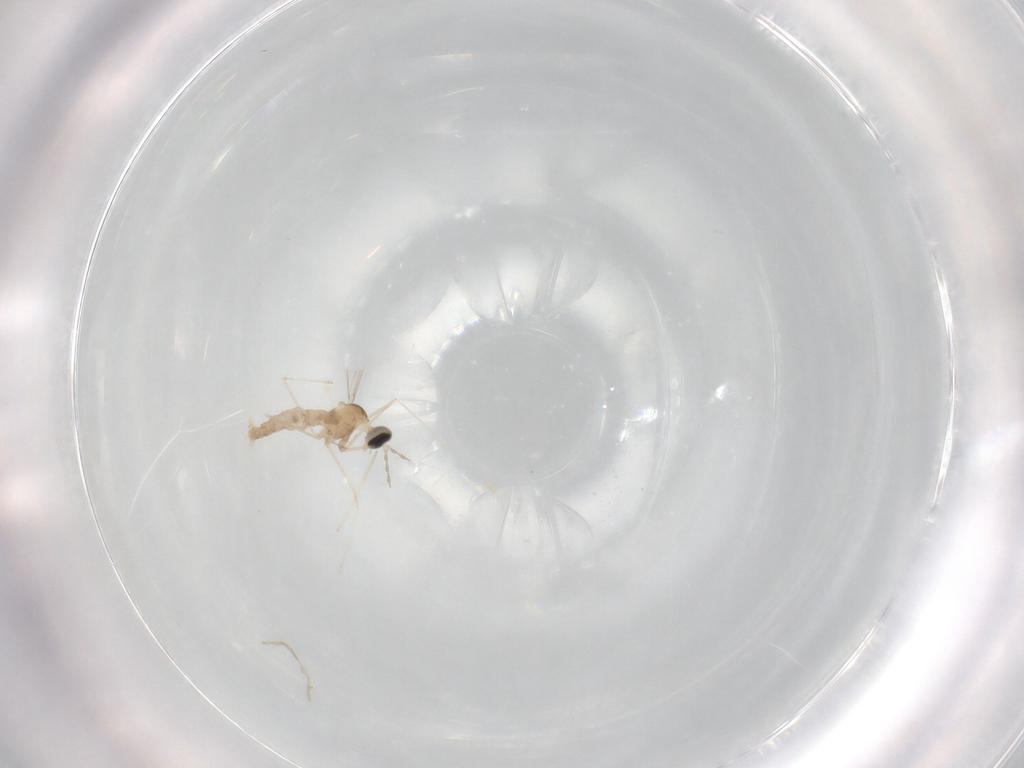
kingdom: Animalia
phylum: Arthropoda
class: Insecta
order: Diptera
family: Cecidomyiidae
